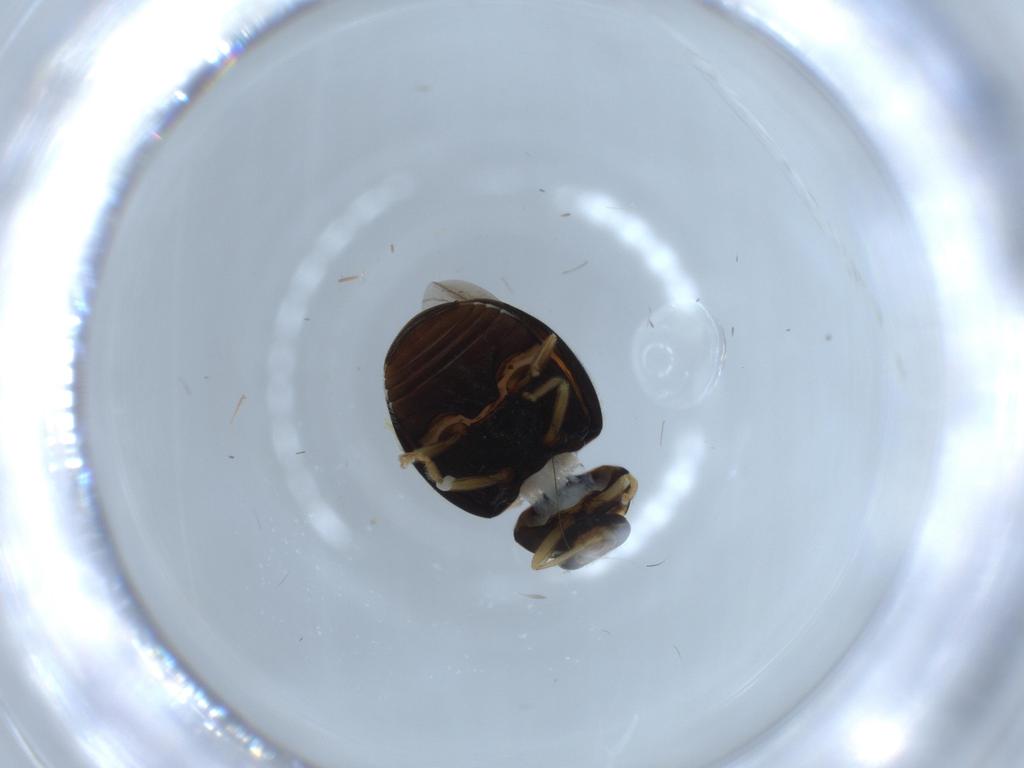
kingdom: Animalia
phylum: Arthropoda
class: Insecta
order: Coleoptera
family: Coccinellidae
